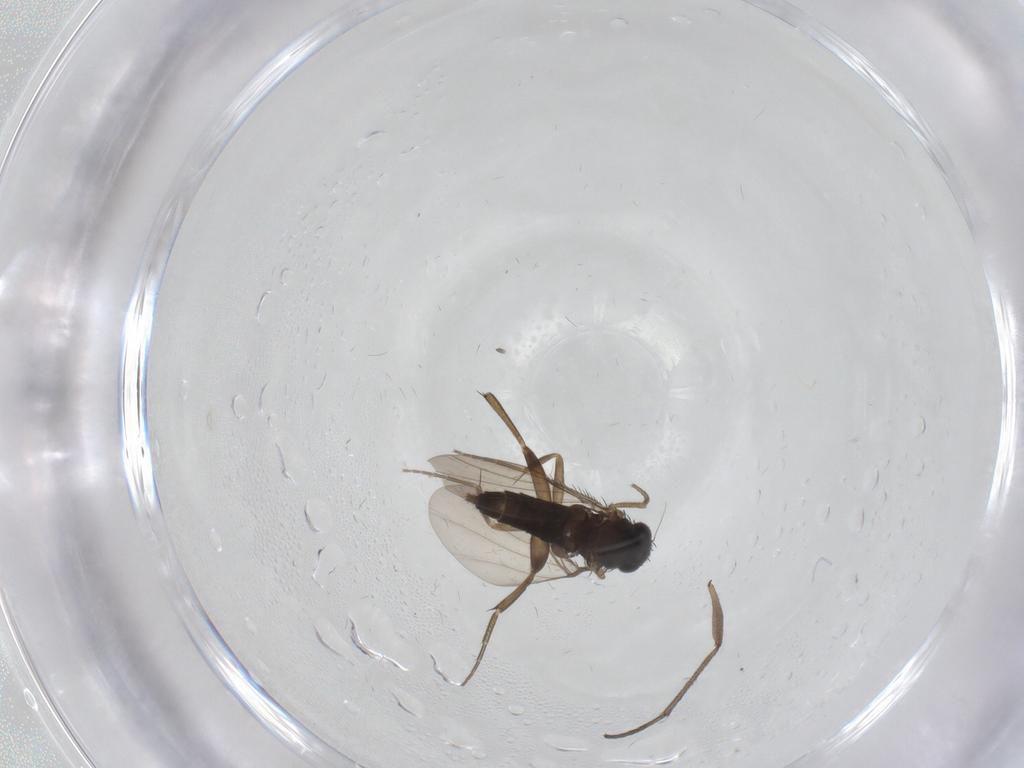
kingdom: Animalia
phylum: Arthropoda
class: Insecta
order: Diptera
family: Phoridae
